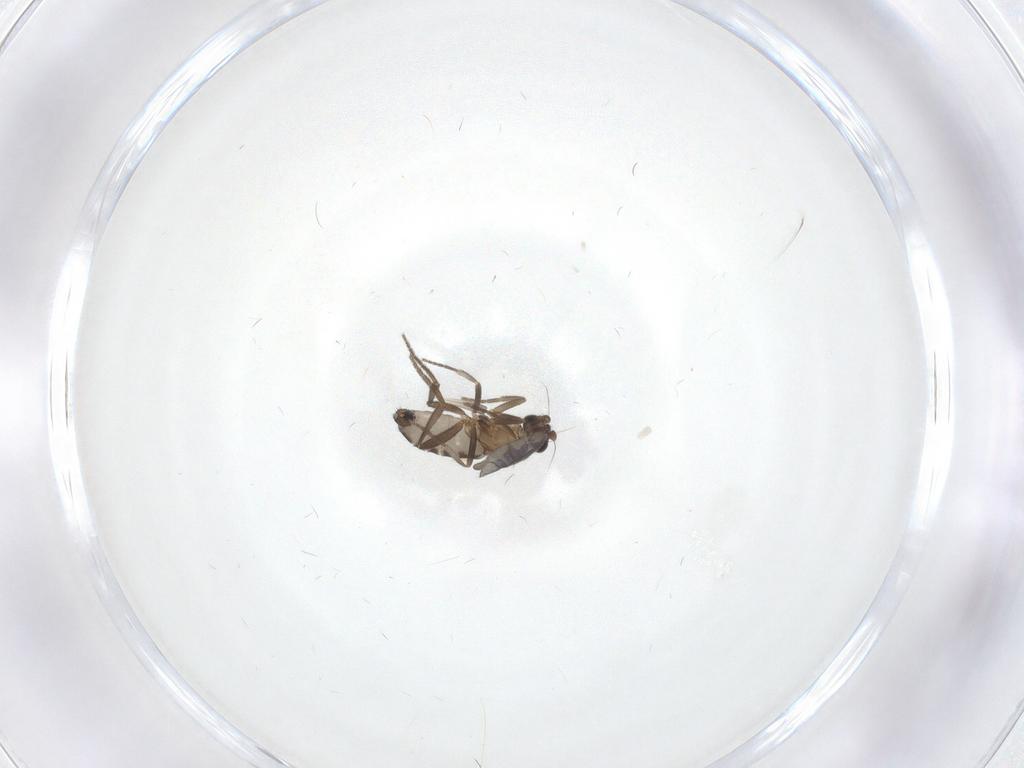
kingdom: Animalia
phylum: Arthropoda
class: Insecta
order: Diptera
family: Phoridae
